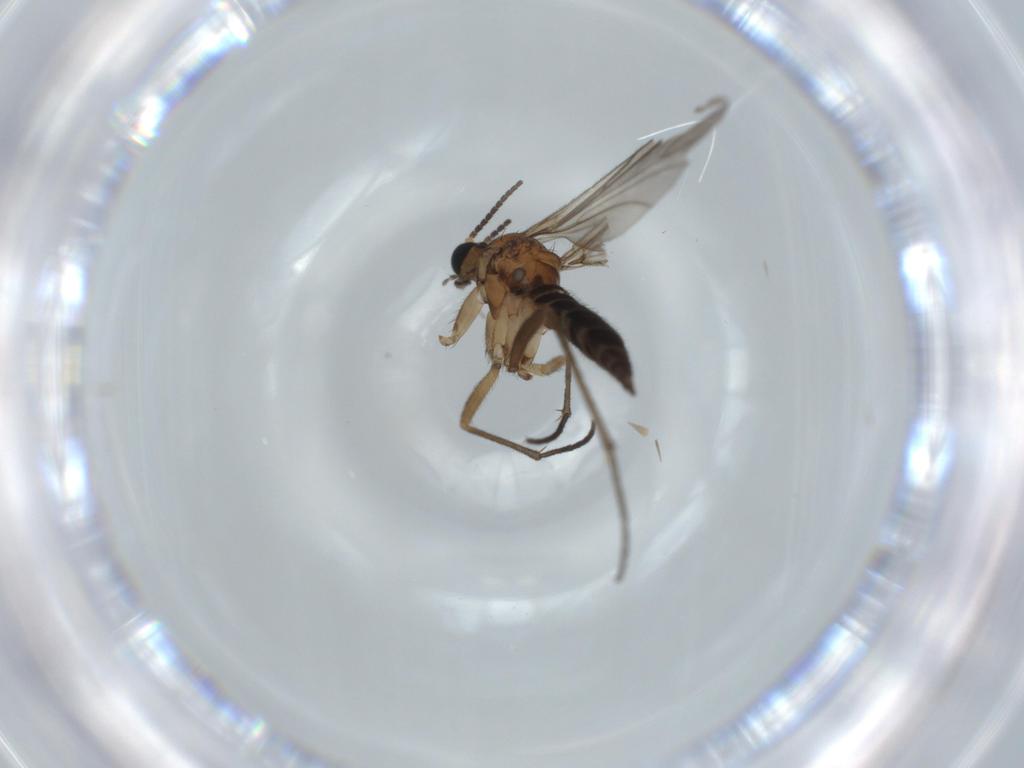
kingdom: Animalia
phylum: Arthropoda
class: Insecta
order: Diptera
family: Sciaridae
